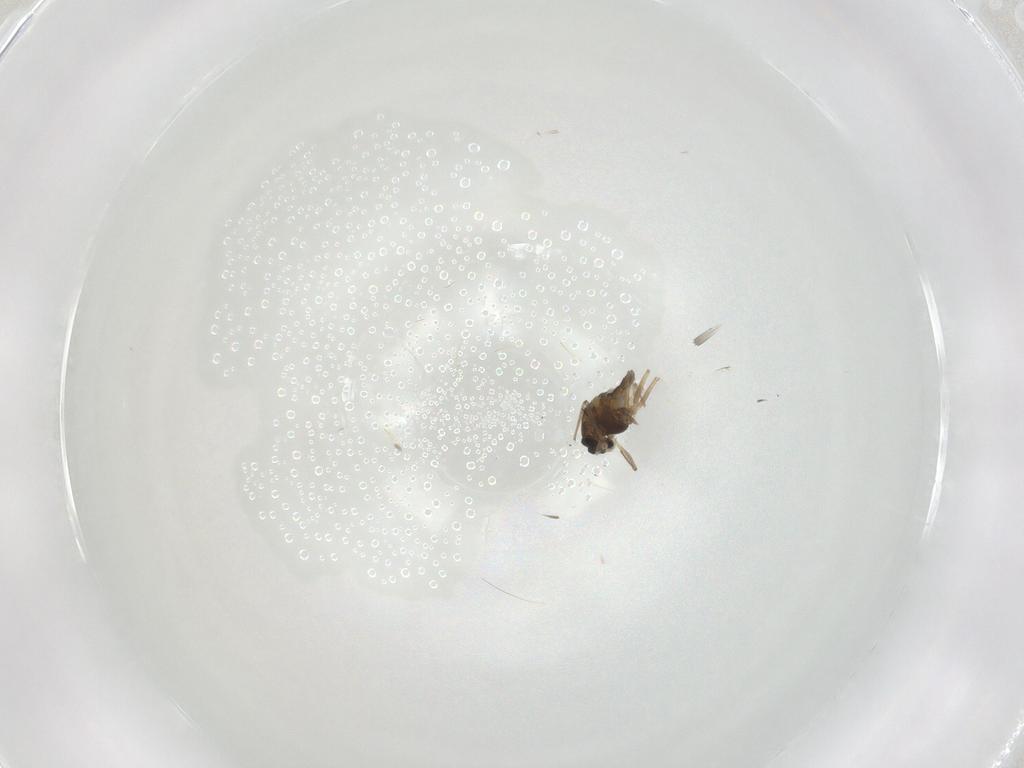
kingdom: Animalia
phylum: Arthropoda
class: Insecta
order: Diptera
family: Chironomidae
